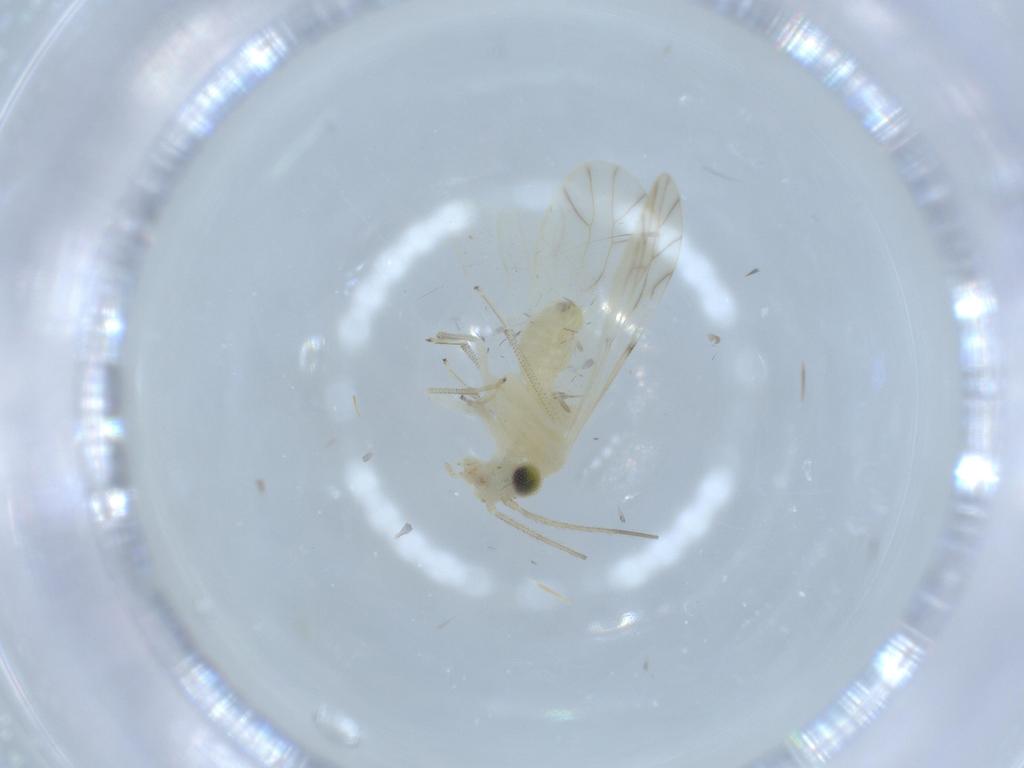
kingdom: Animalia
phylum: Arthropoda
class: Insecta
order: Psocodea
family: Caeciliusidae
